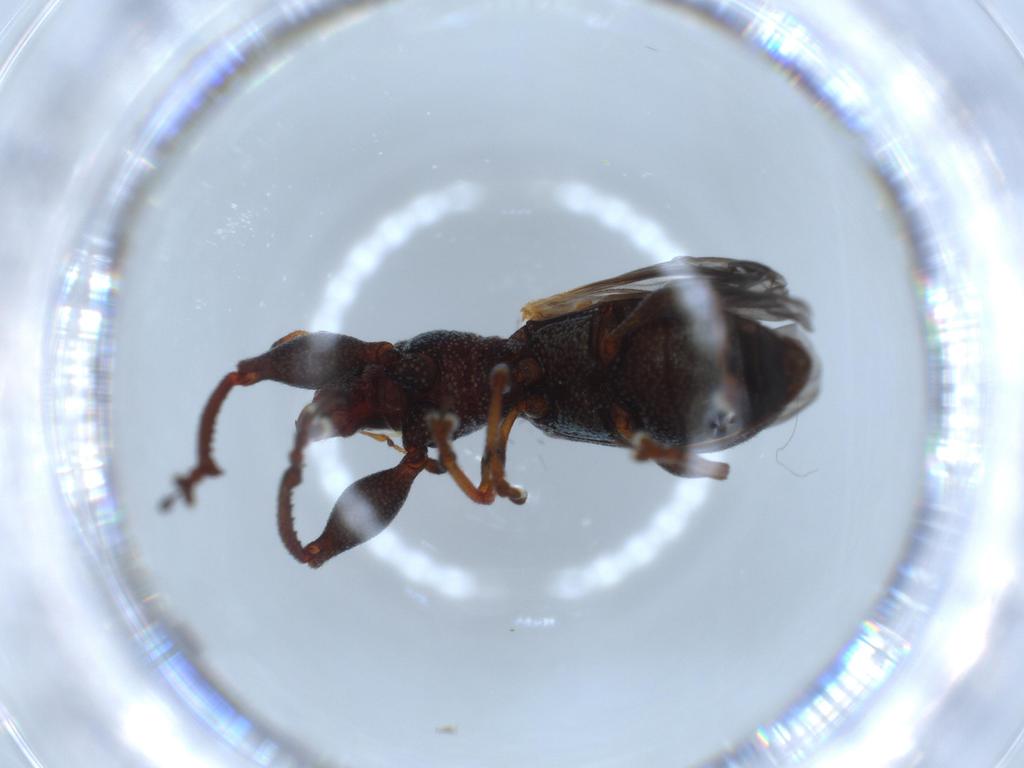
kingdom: Animalia
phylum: Arthropoda
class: Insecta
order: Coleoptera
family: Curculionidae
